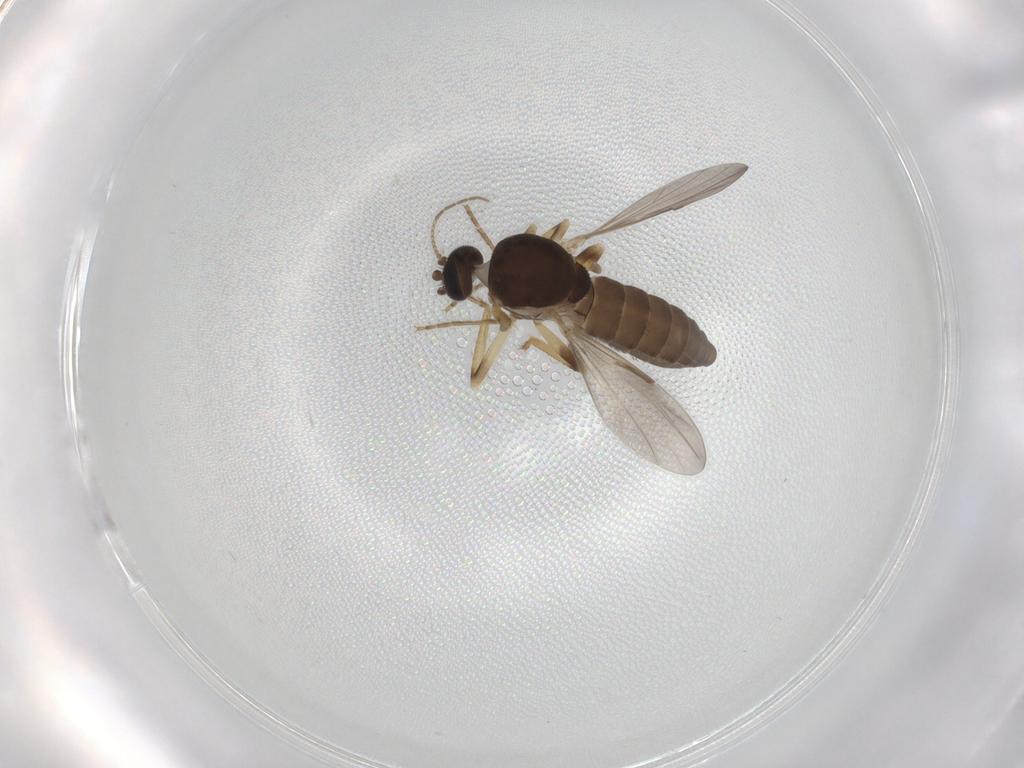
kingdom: Animalia
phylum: Arthropoda
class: Insecta
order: Diptera
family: Ceratopogonidae
